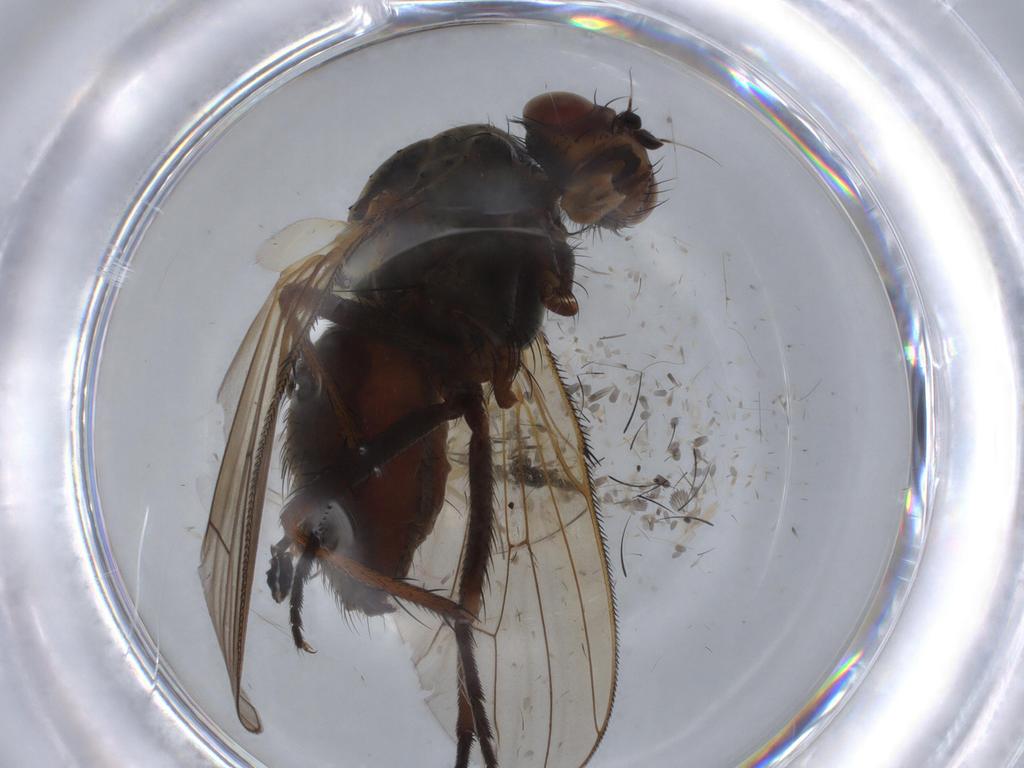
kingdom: Animalia
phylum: Arthropoda
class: Insecta
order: Diptera
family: Anthomyiidae
